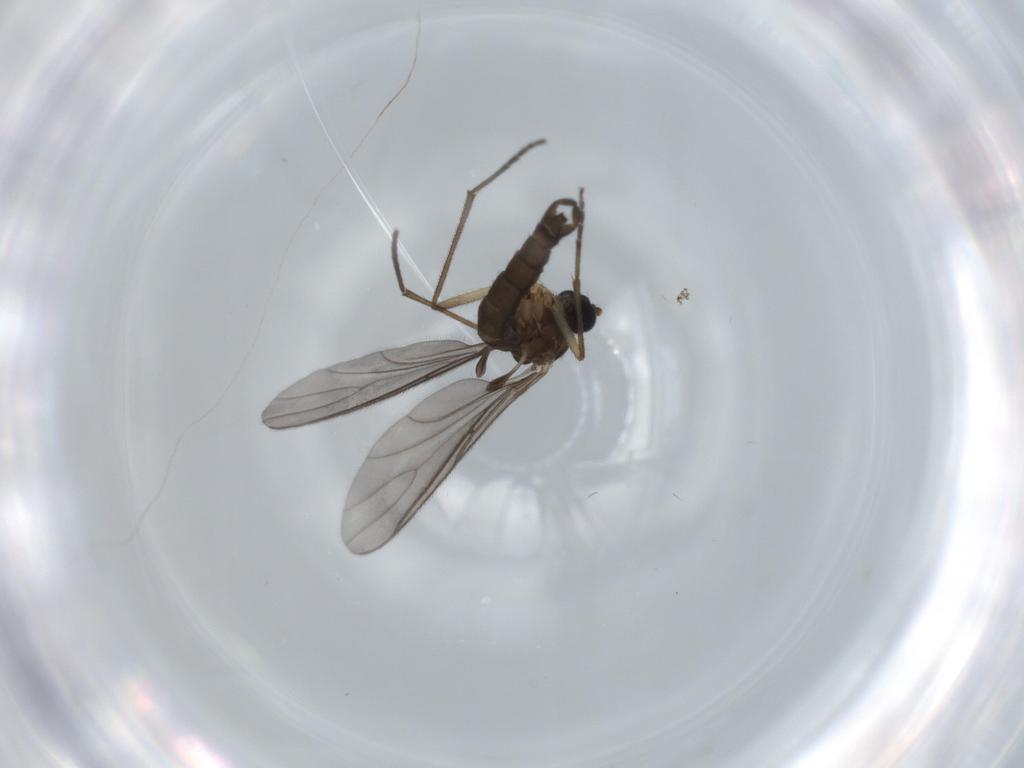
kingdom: Animalia
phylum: Arthropoda
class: Insecta
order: Diptera
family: Sciaridae
